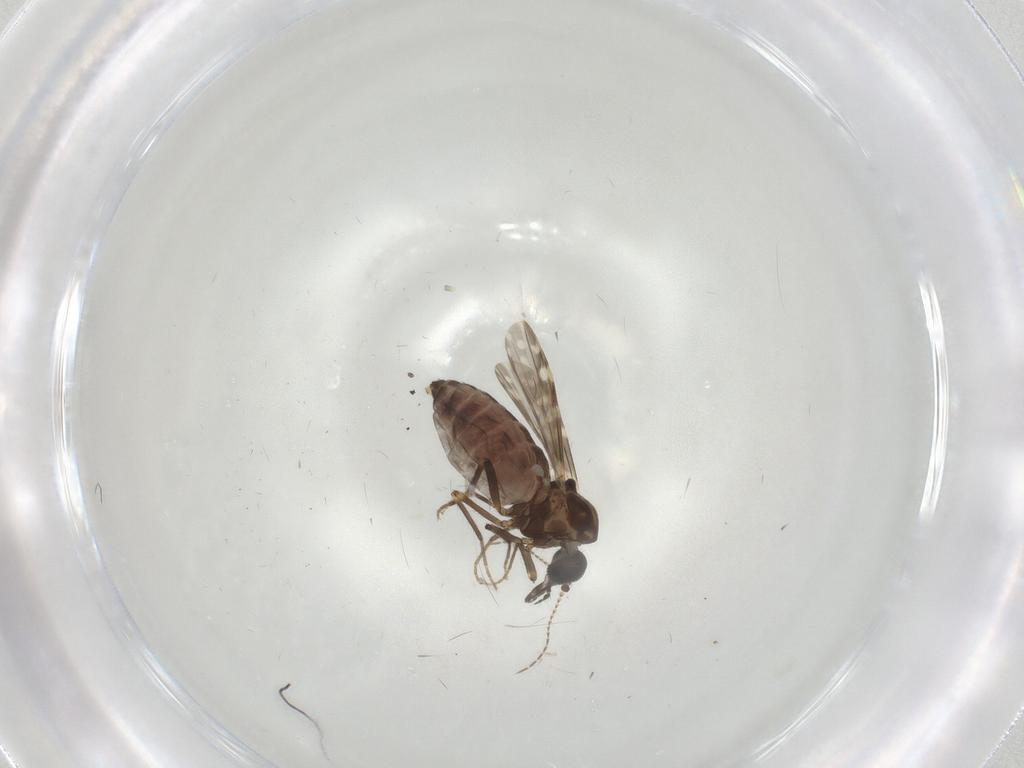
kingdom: Animalia
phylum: Arthropoda
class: Insecta
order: Diptera
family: Ceratopogonidae
